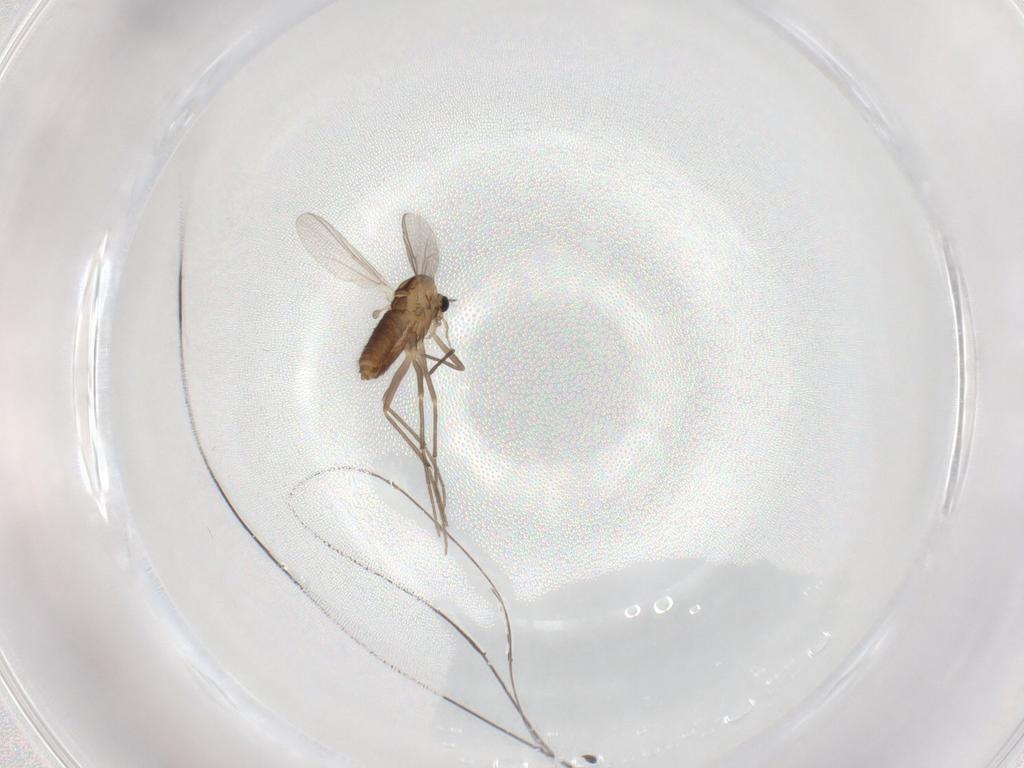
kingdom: Animalia
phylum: Arthropoda
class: Insecta
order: Diptera
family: Chironomidae
